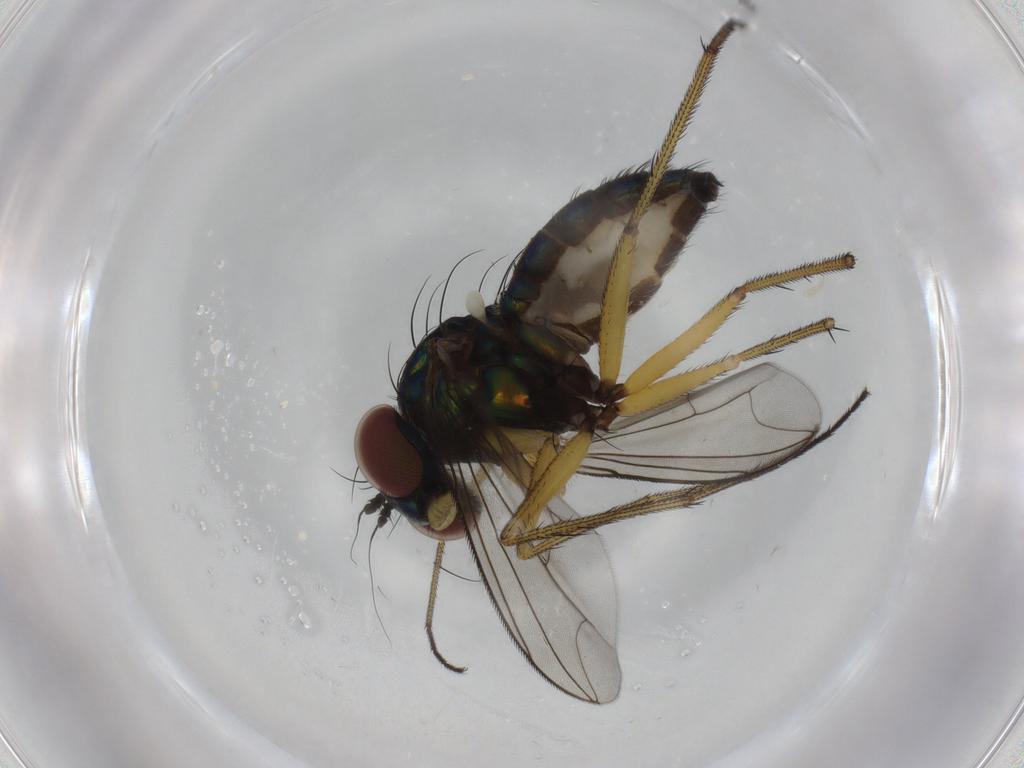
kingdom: Animalia
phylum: Arthropoda
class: Insecta
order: Diptera
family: Dolichopodidae
